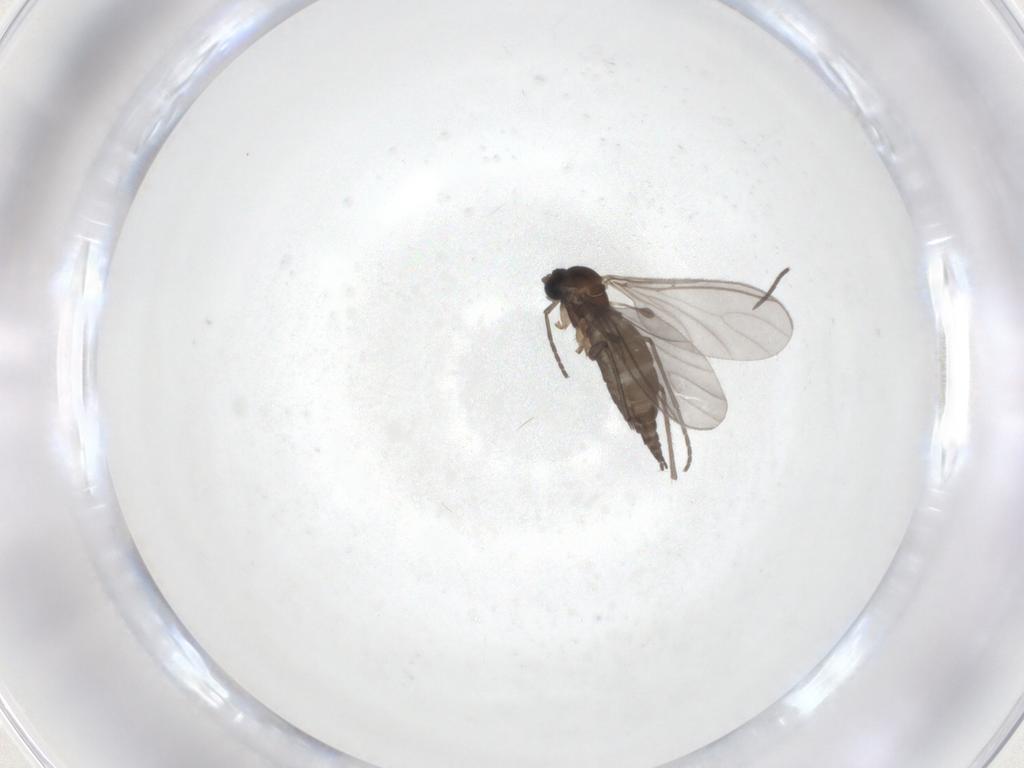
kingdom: Animalia
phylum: Arthropoda
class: Insecta
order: Diptera
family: Sciaridae
